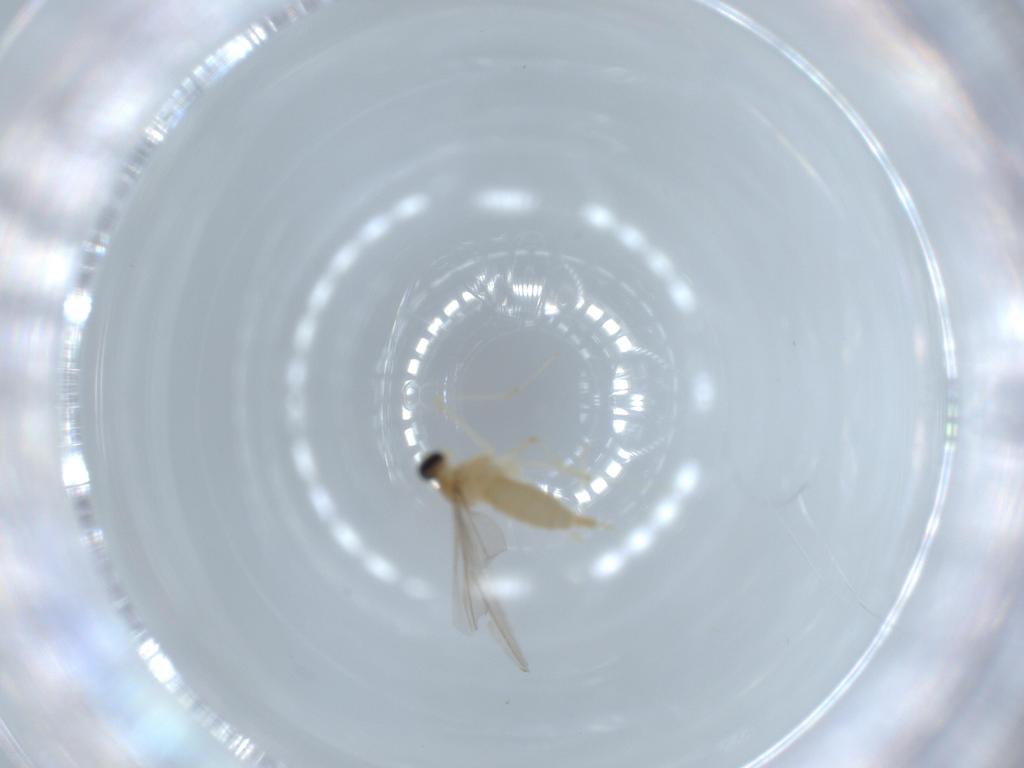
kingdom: Animalia
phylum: Arthropoda
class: Insecta
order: Diptera
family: Cecidomyiidae
